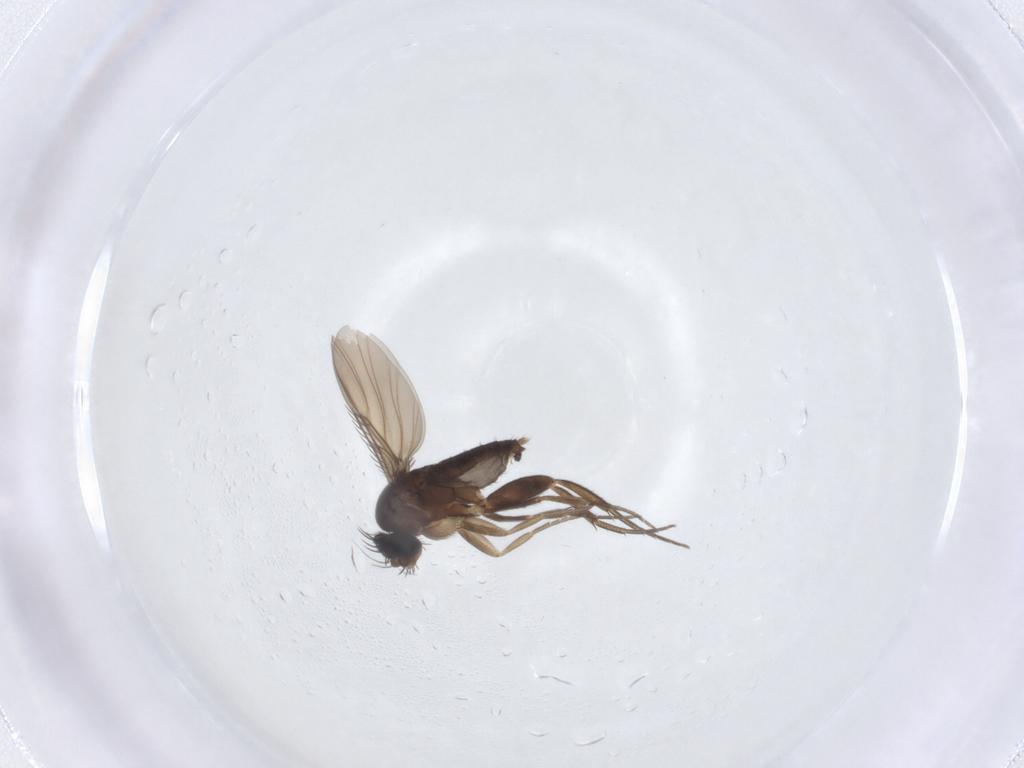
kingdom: Animalia
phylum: Arthropoda
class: Insecta
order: Diptera
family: Phoridae
